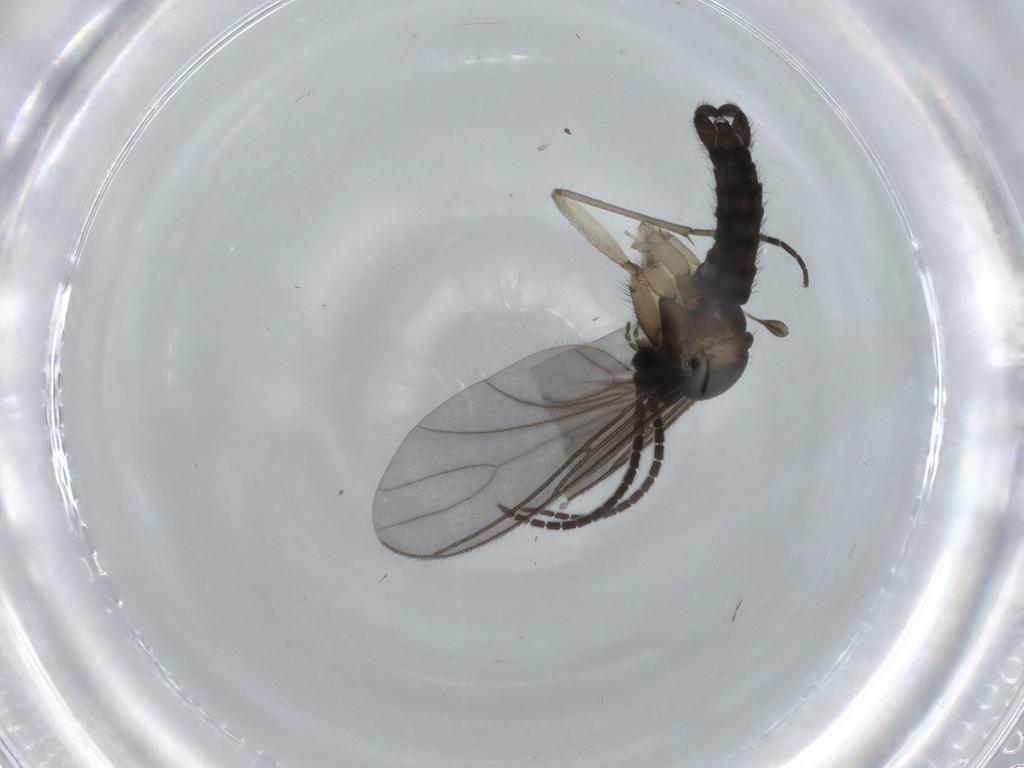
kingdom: Animalia
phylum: Arthropoda
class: Insecta
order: Diptera
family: Sciaridae
